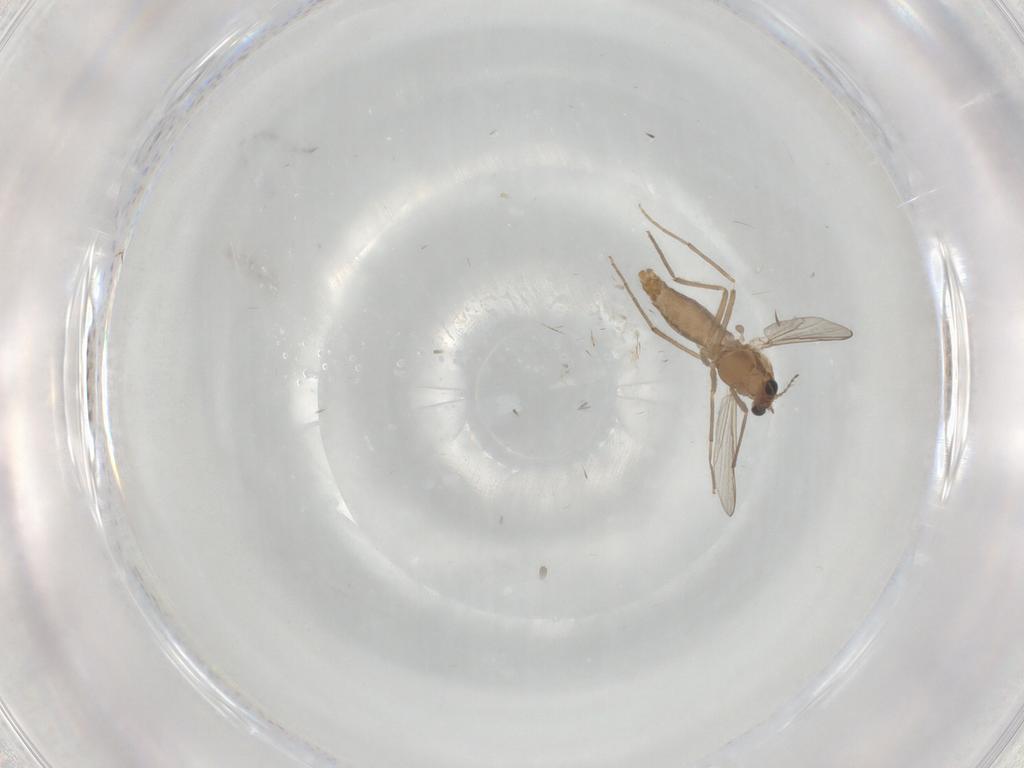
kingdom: Animalia
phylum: Arthropoda
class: Insecta
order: Diptera
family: Chironomidae
